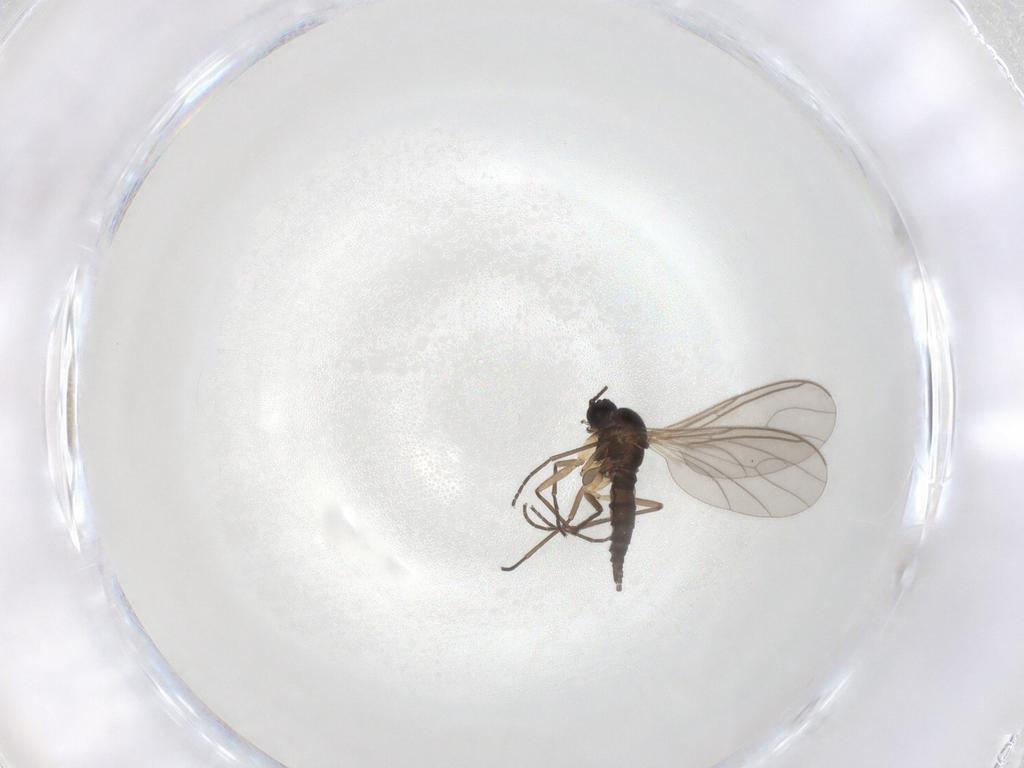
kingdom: Animalia
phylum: Arthropoda
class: Insecta
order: Diptera
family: Sciaridae
